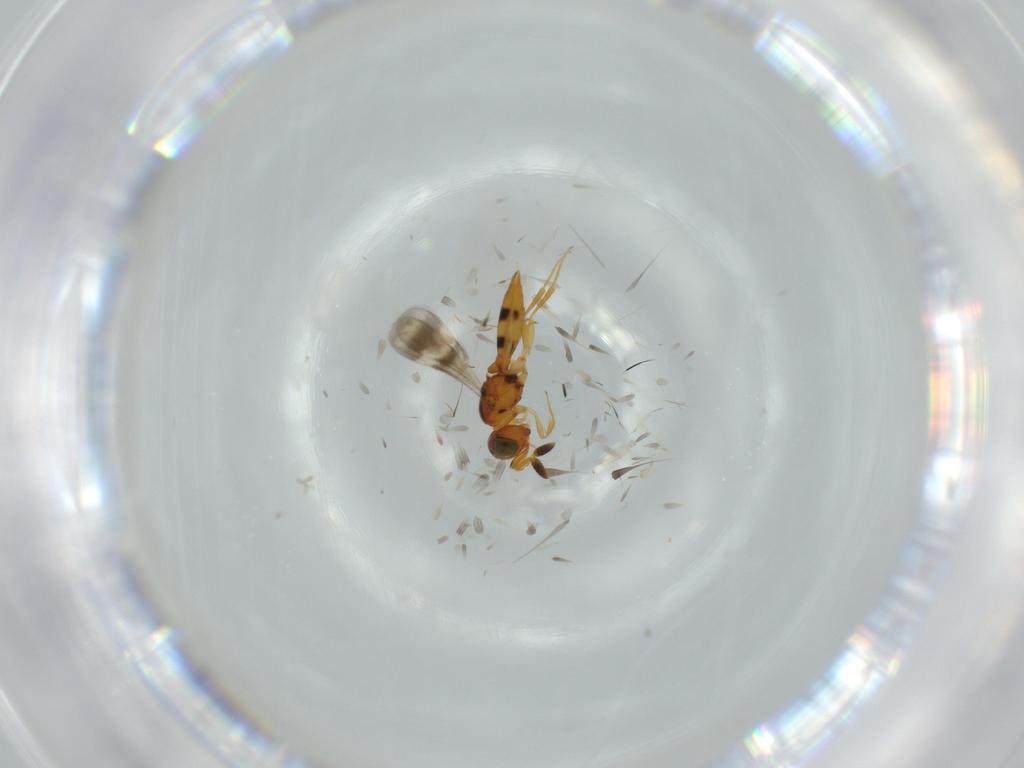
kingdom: Animalia
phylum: Arthropoda
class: Insecta
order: Hymenoptera
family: Scelionidae
